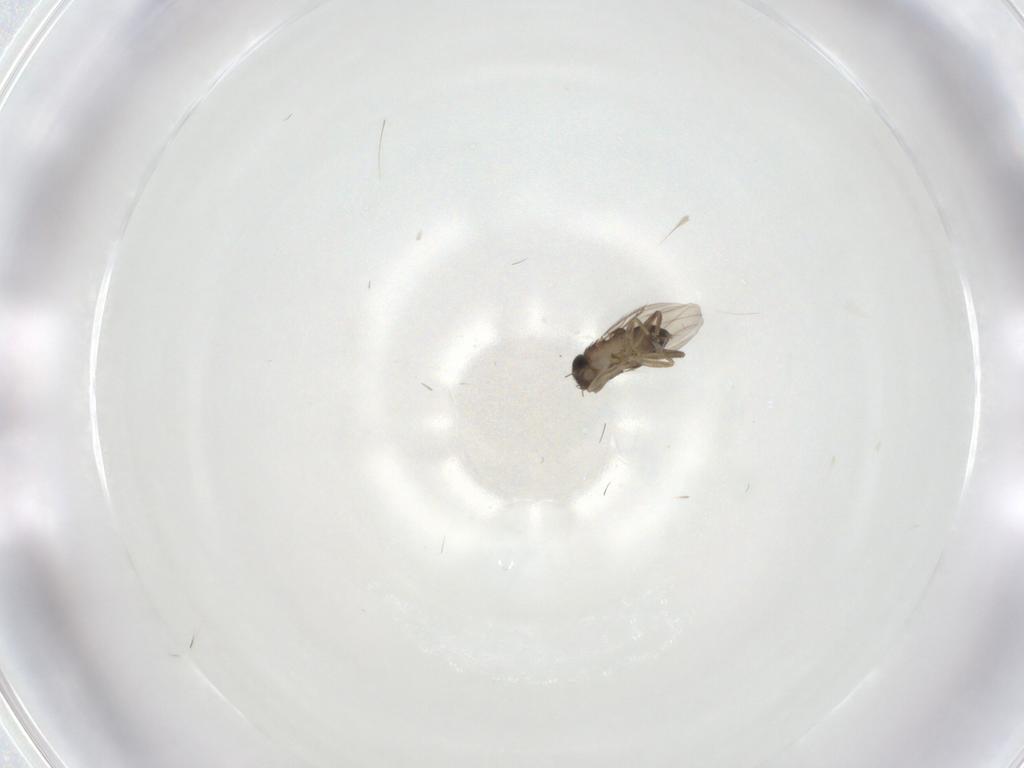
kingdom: Animalia
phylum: Arthropoda
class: Insecta
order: Diptera
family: Phoridae
